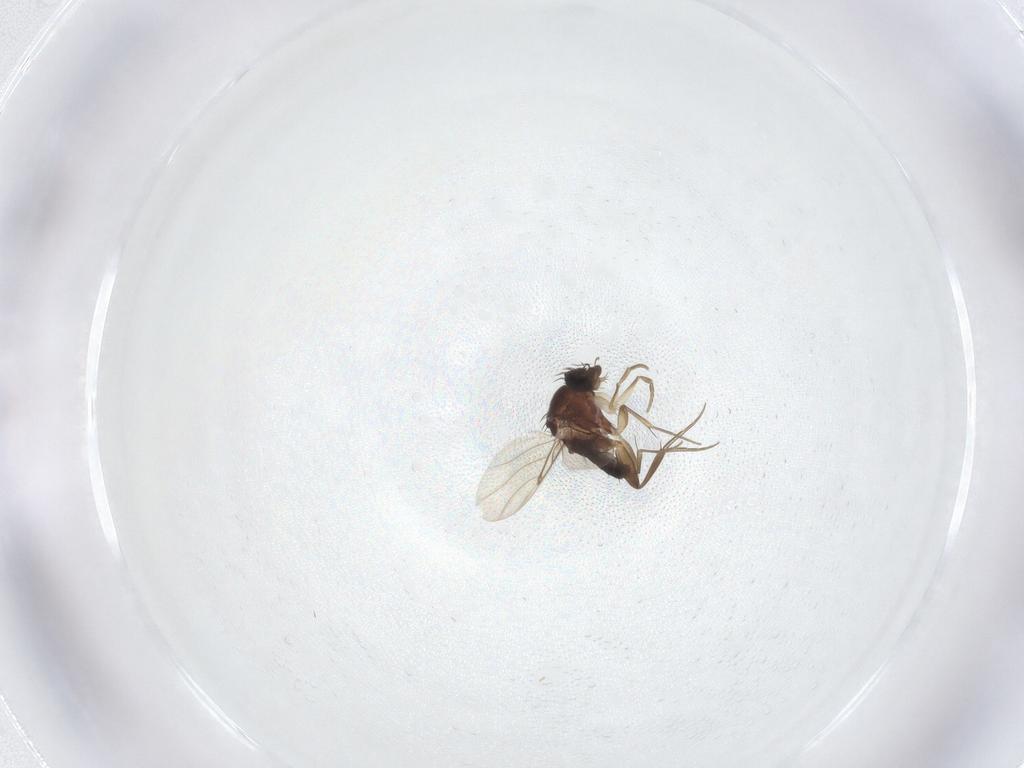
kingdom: Animalia
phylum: Arthropoda
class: Insecta
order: Diptera
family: Phoridae
